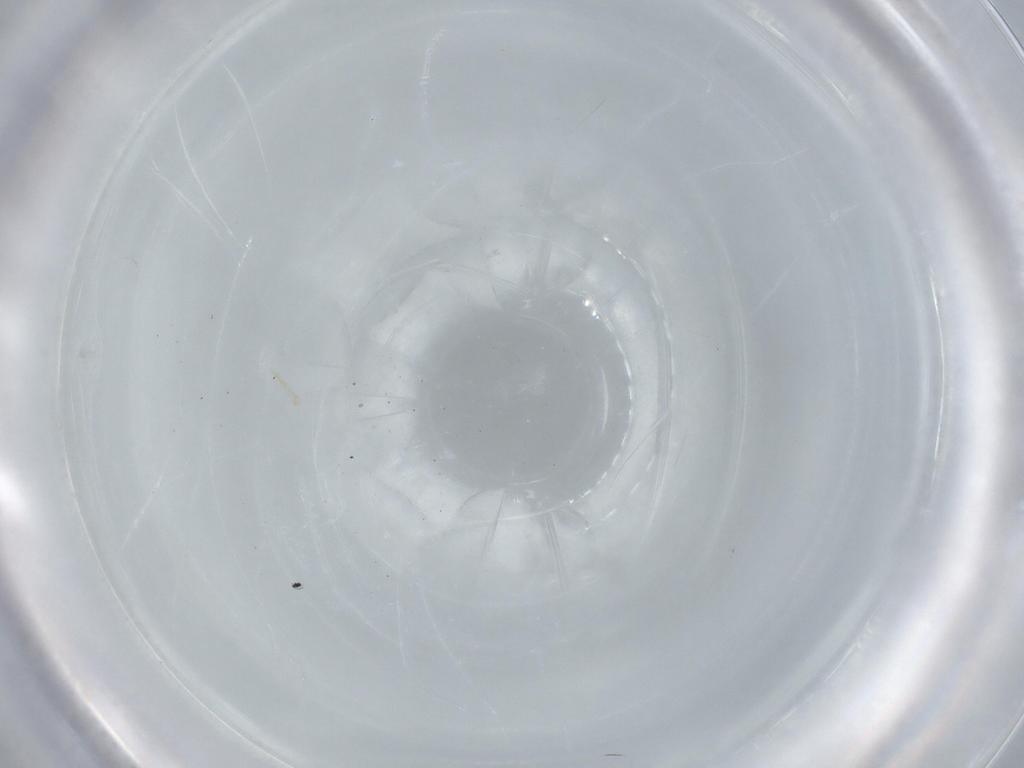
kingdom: Animalia
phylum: Arthropoda
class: Insecta
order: Diptera
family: Cecidomyiidae
